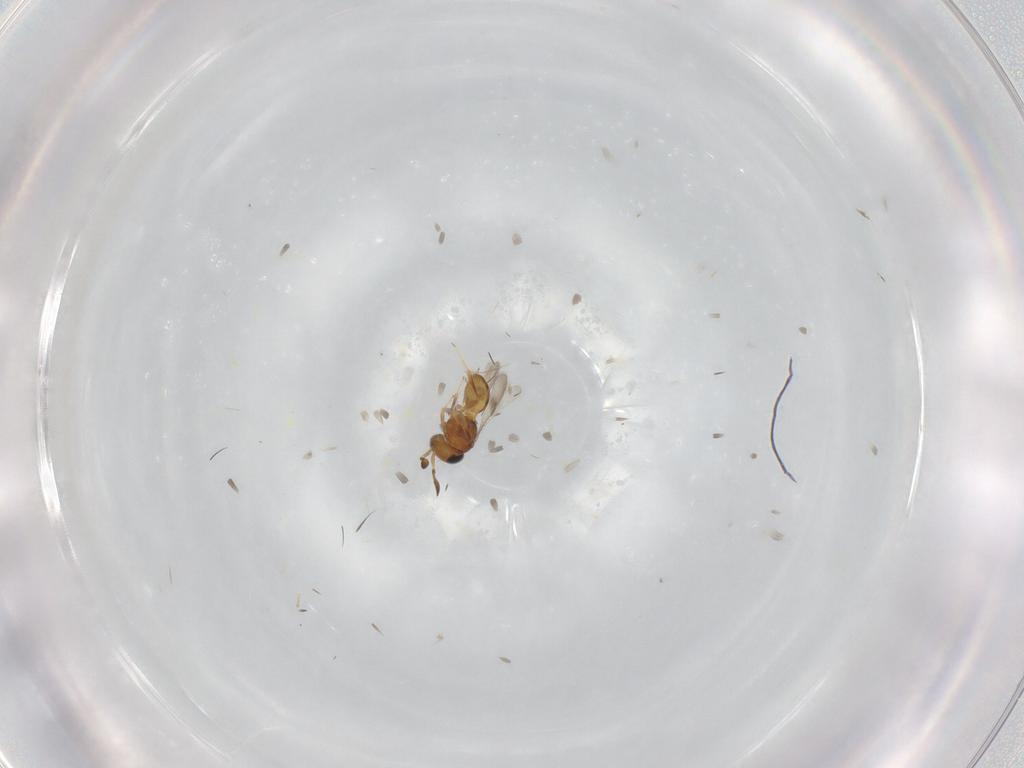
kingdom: Animalia
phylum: Arthropoda
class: Insecta
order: Hymenoptera
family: Scelionidae
